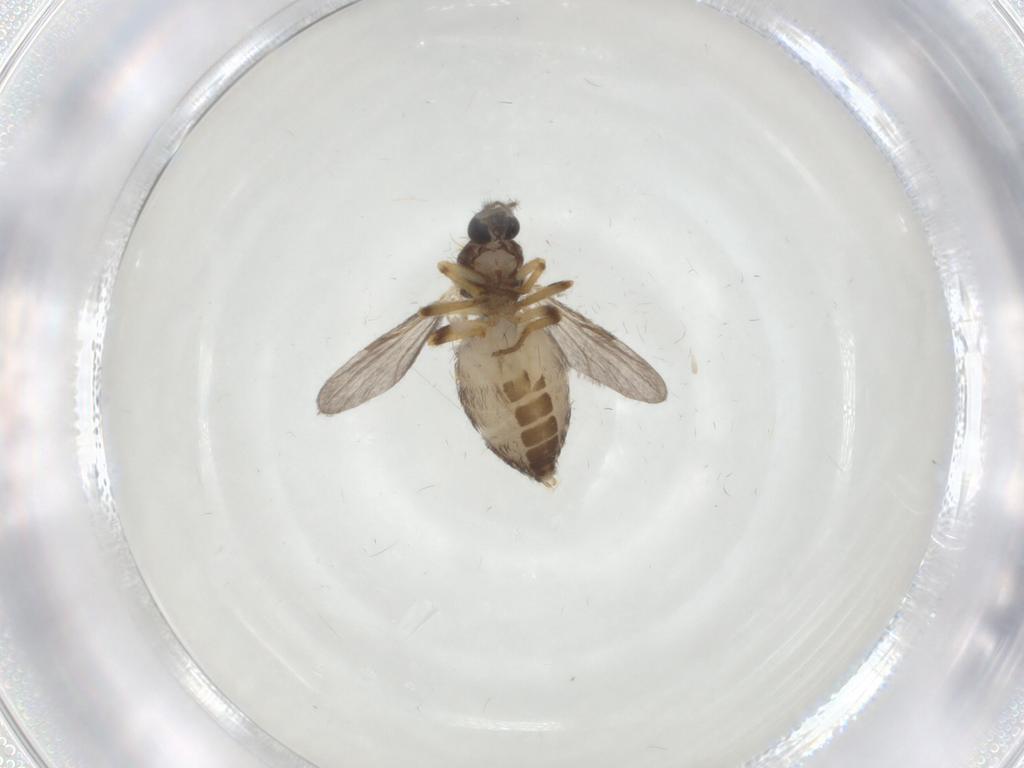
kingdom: Animalia
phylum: Arthropoda
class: Insecta
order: Diptera
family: Ceratopogonidae
